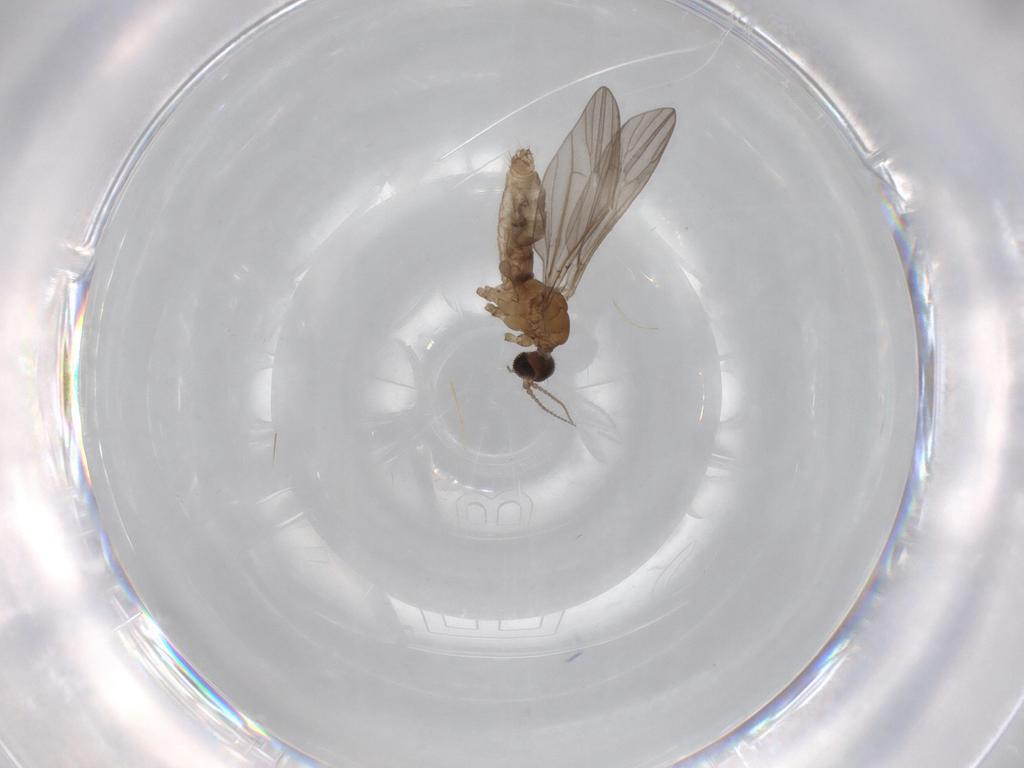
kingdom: Animalia
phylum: Arthropoda
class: Insecta
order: Diptera
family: Limoniidae
